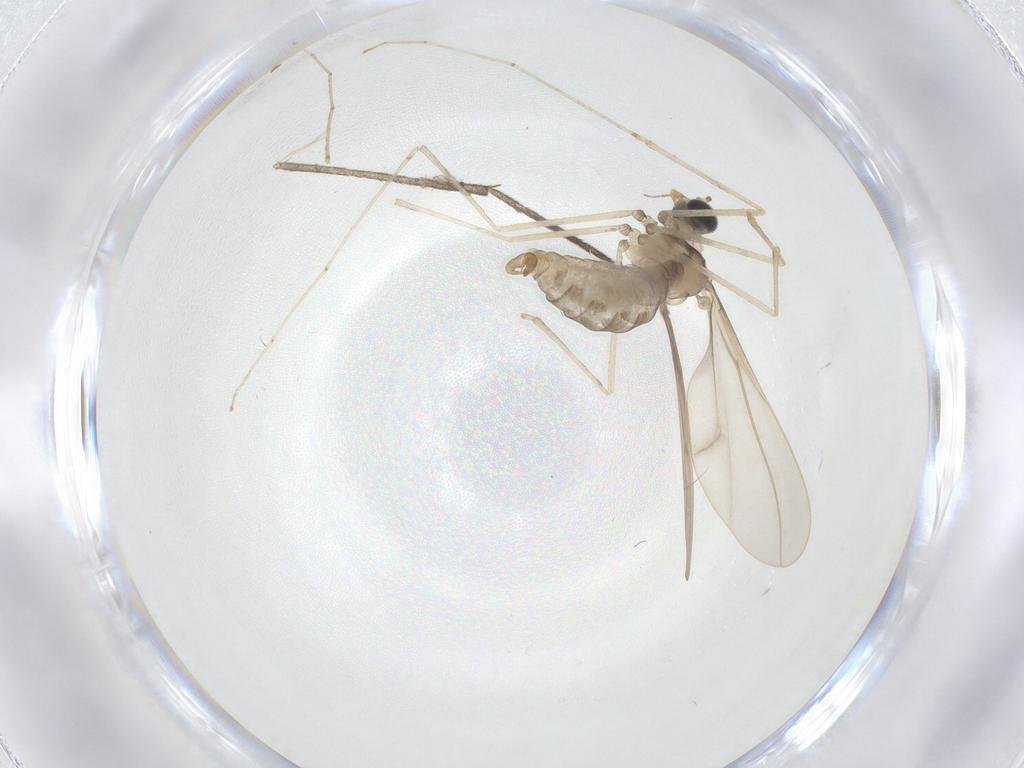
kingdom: Animalia
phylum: Arthropoda
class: Insecta
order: Diptera
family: Cecidomyiidae
